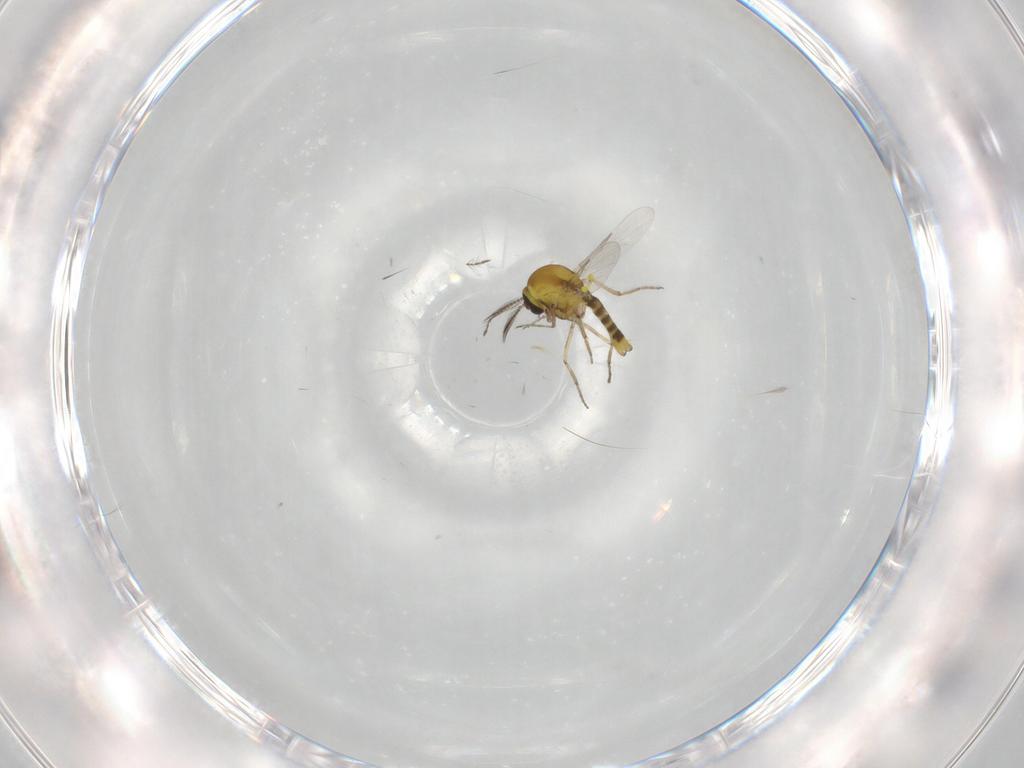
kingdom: Animalia
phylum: Arthropoda
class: Insecta
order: Diptera
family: Ceratopogonidae
